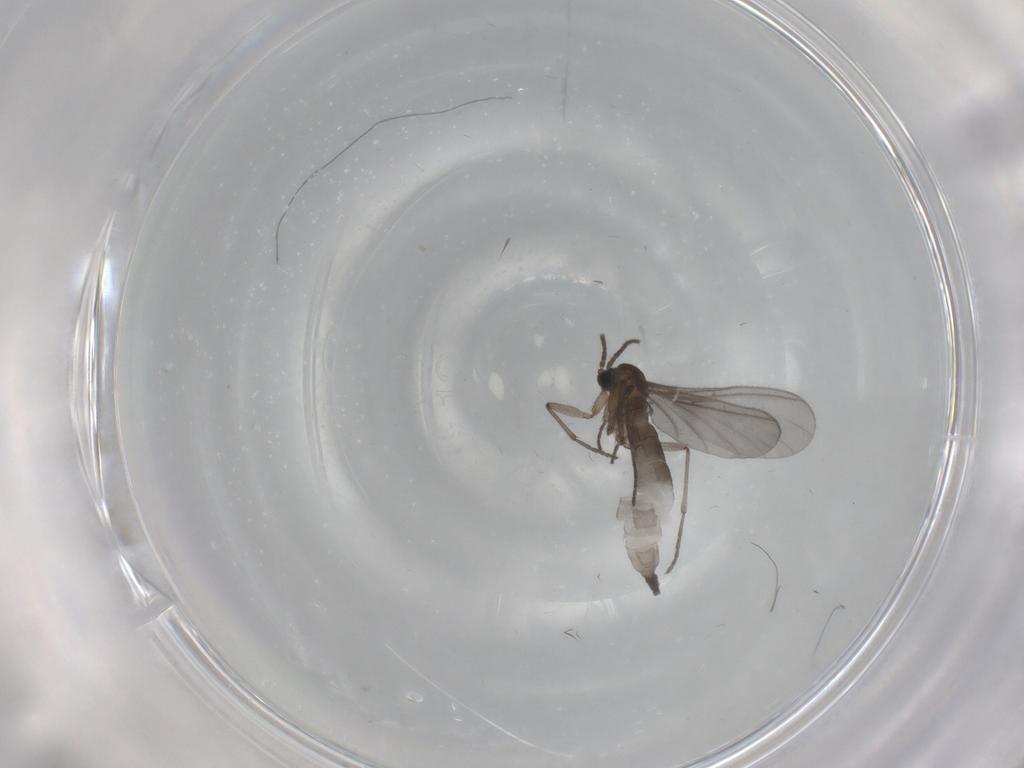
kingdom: Animalia
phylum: Arthropoda
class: Insecta
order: Diptera
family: Sciaridae
